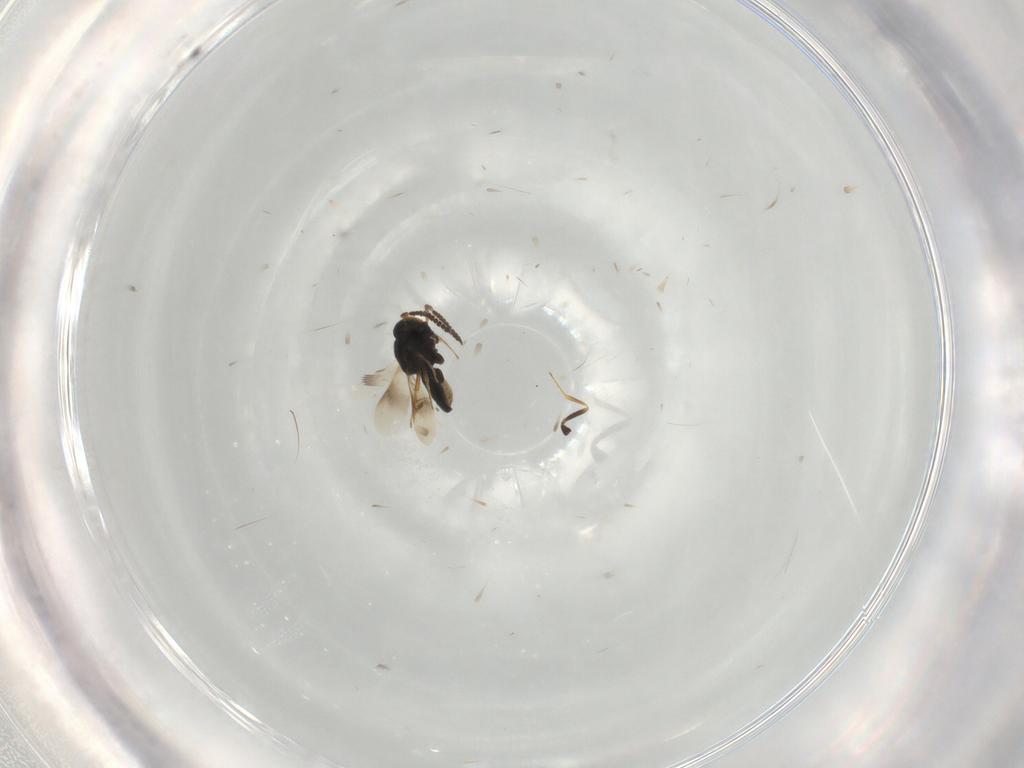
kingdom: Animalia
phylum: Arthropoda
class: Insecta
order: Hymenoptera
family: Scelionidae
